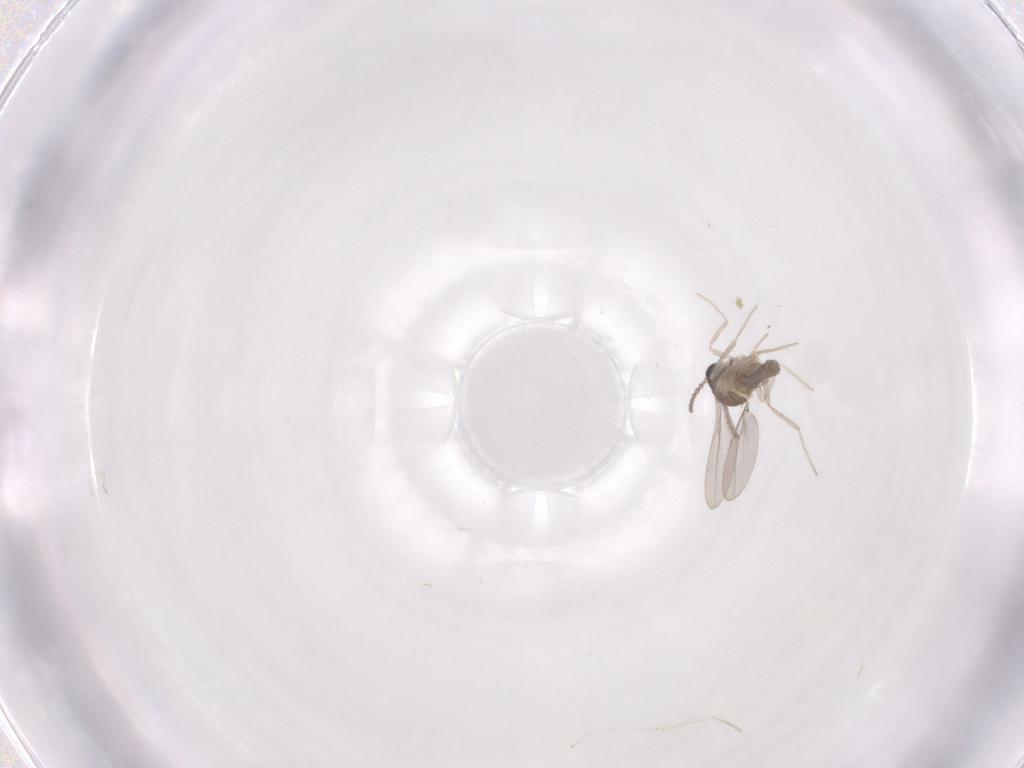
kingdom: Animalia
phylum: Arthropoda
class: Insecta
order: Diptera
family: Cecidomyiidae
